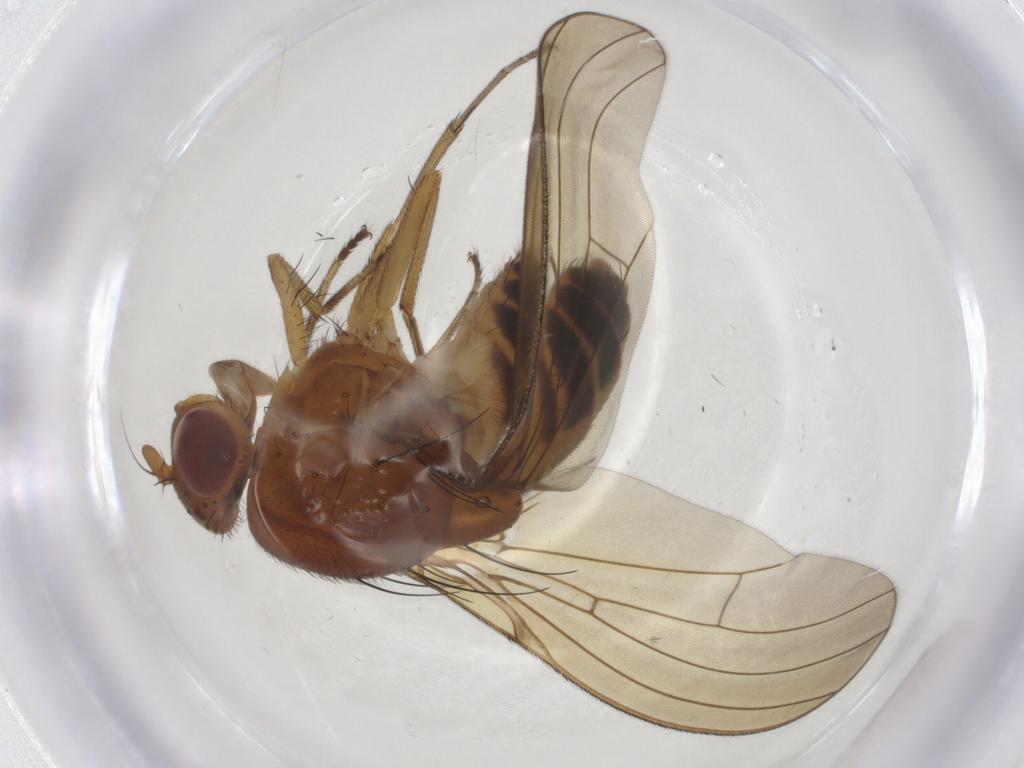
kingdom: Animalia
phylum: Arthropoda
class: Insecta
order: Diptera
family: Lauxaniidae
